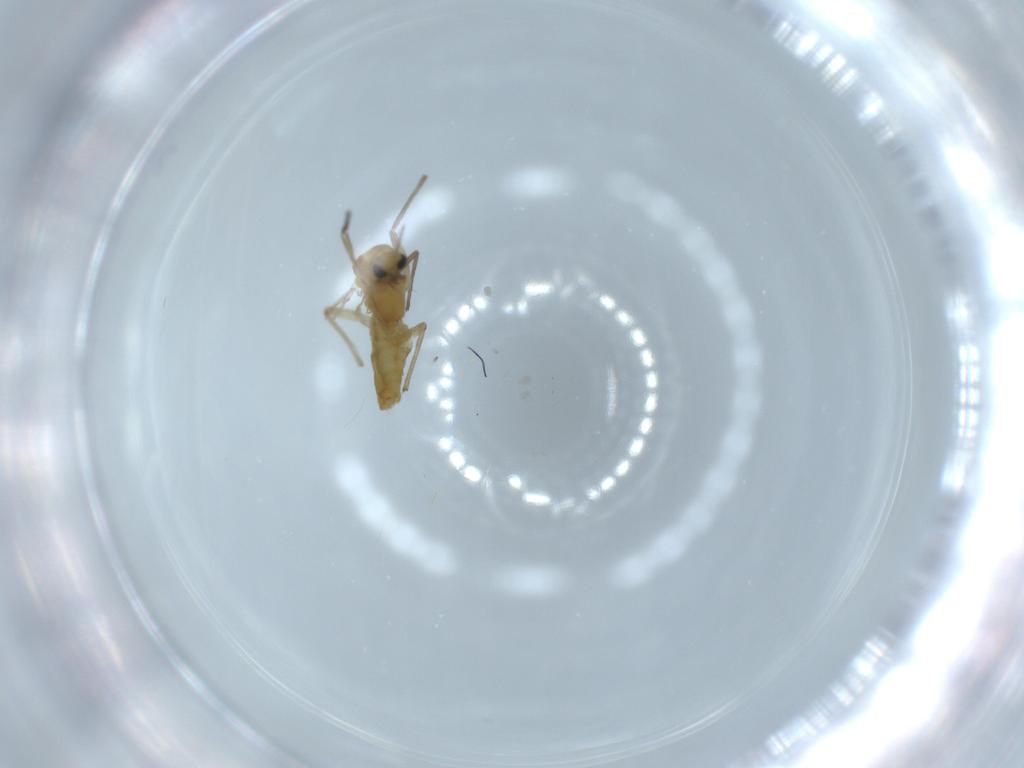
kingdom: Animalia
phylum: Arthropoda
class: Insecta
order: Diptera
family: Chironomidae
